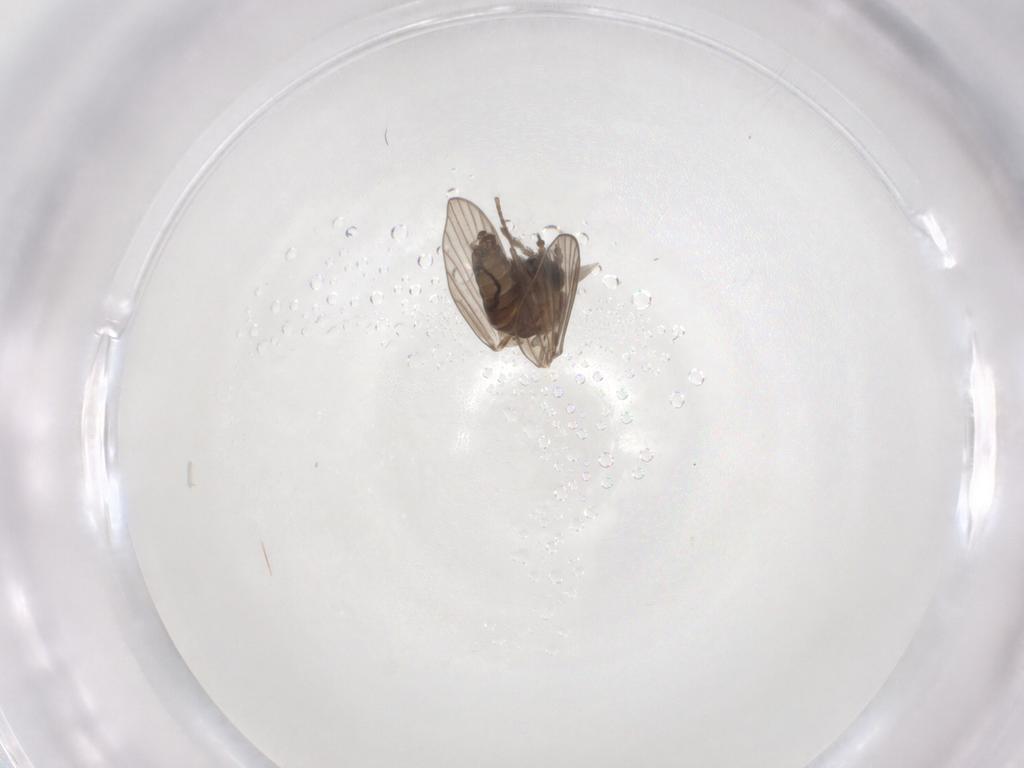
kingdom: Animalia
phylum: Arthropoda
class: Insecta
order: Diptera
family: Psychodidae
